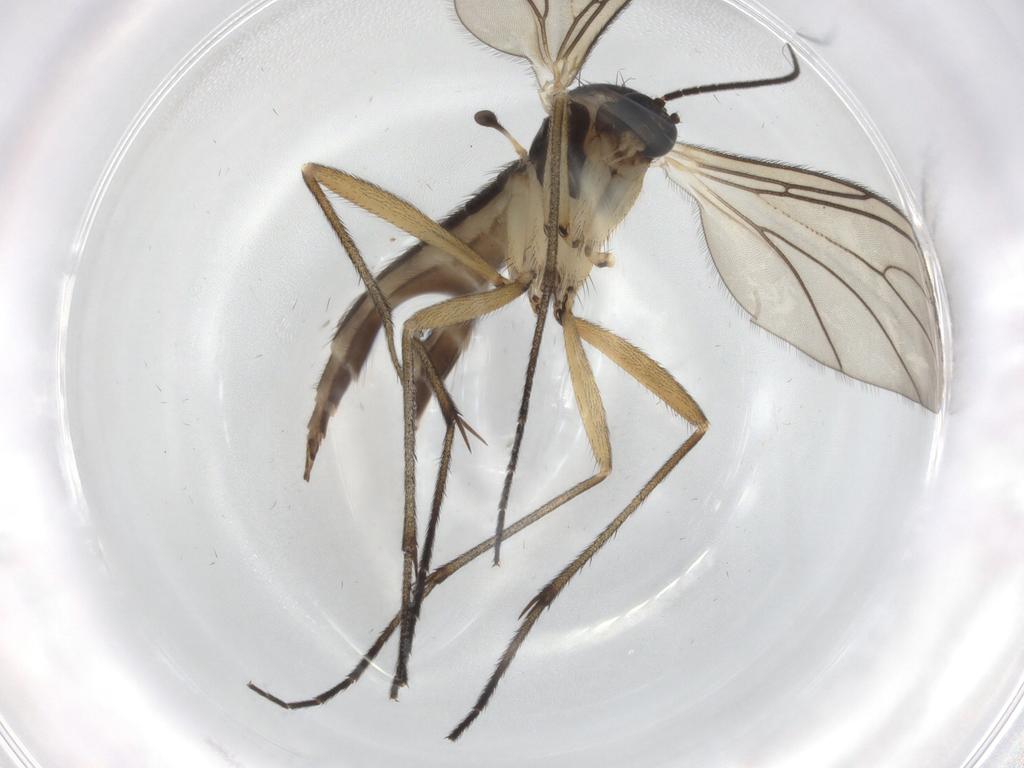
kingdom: Animalia
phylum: Arthropoda
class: Insecta
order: Diptera
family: Sciaridae
